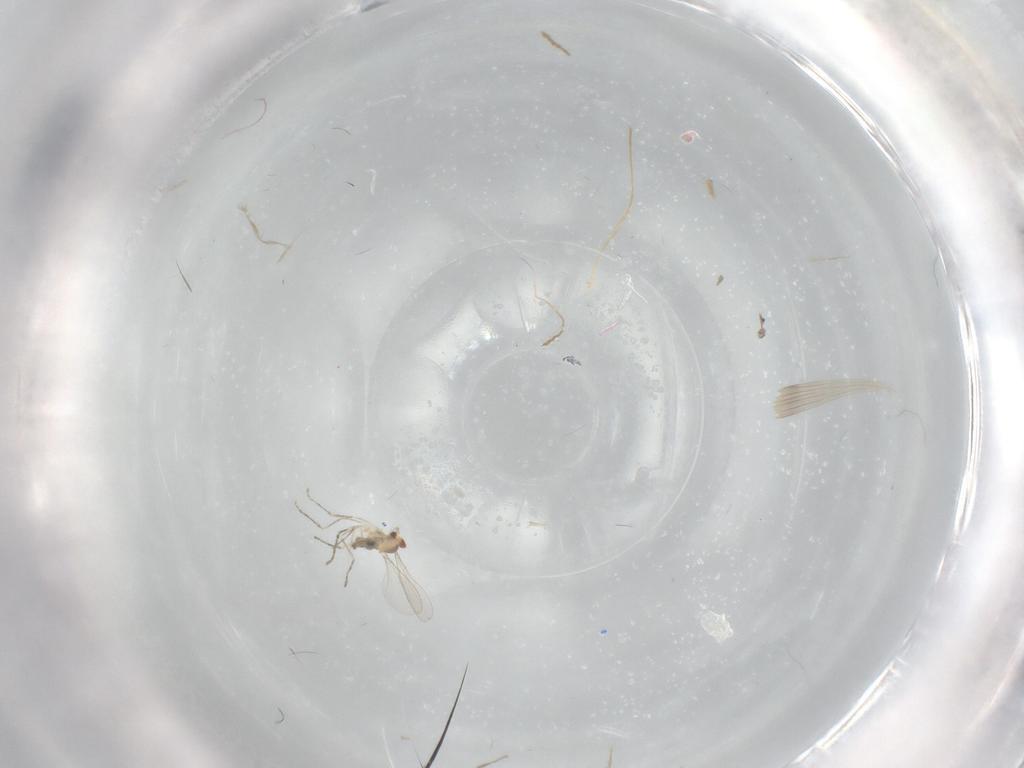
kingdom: Animalia
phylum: Arthropoda
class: Insecta
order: Diptera
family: Cecidomyiidae
